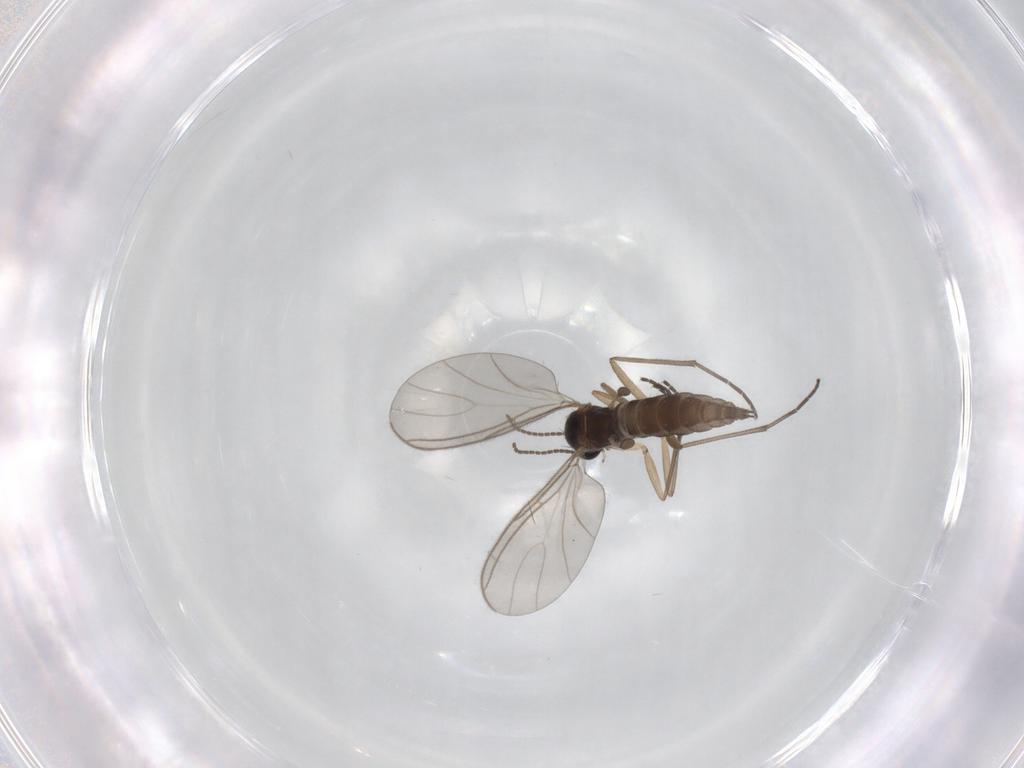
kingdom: Animalia
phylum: Arthropoda
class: Insecta
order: Diptera
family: Sciaridae
